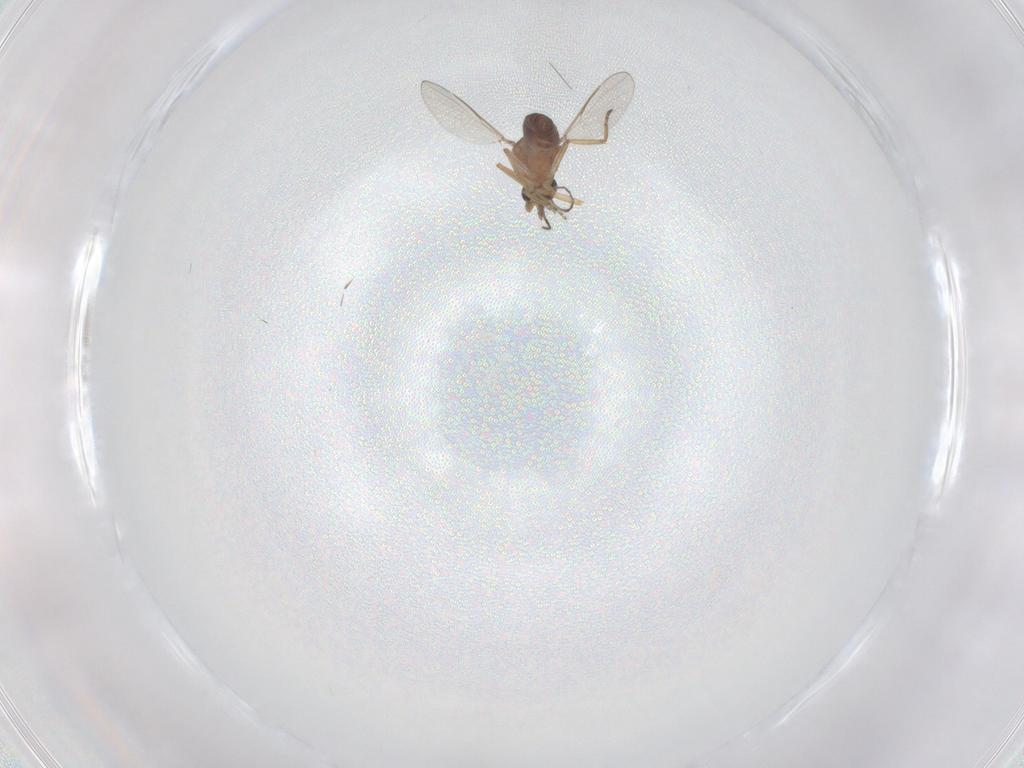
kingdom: Animalia
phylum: Arthropoda
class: Insecta
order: Diptera
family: Ceratopogonidae
